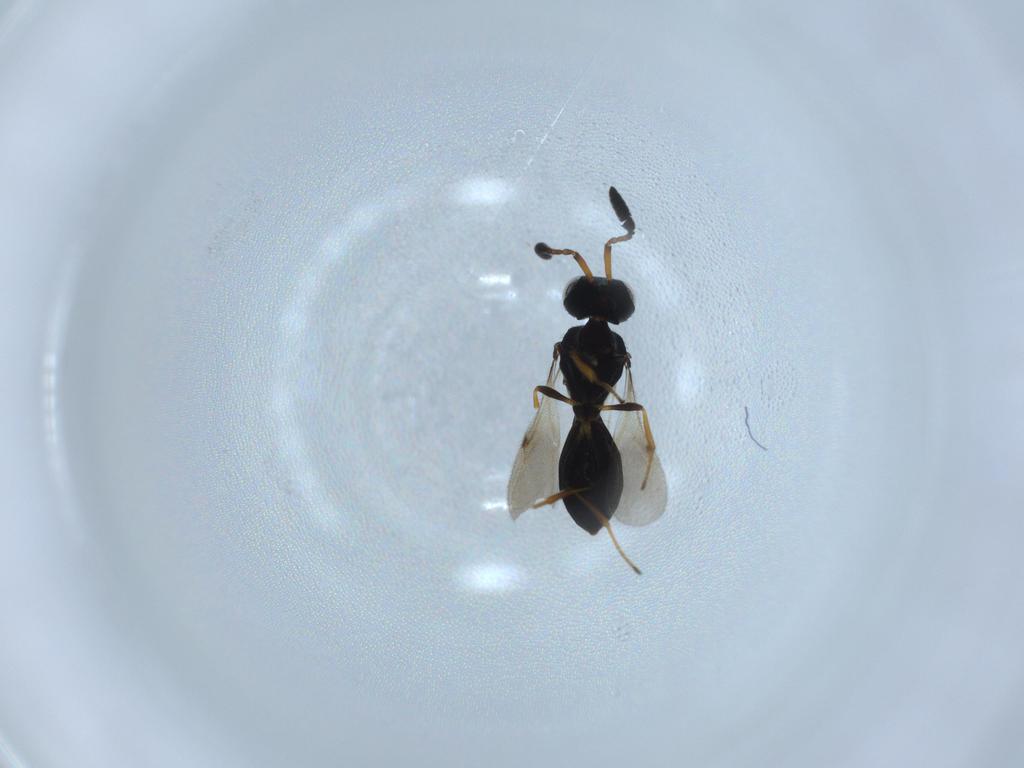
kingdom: Animalia
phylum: Arthropoda
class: Insecta
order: Hymenoptera
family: Scelionidae
